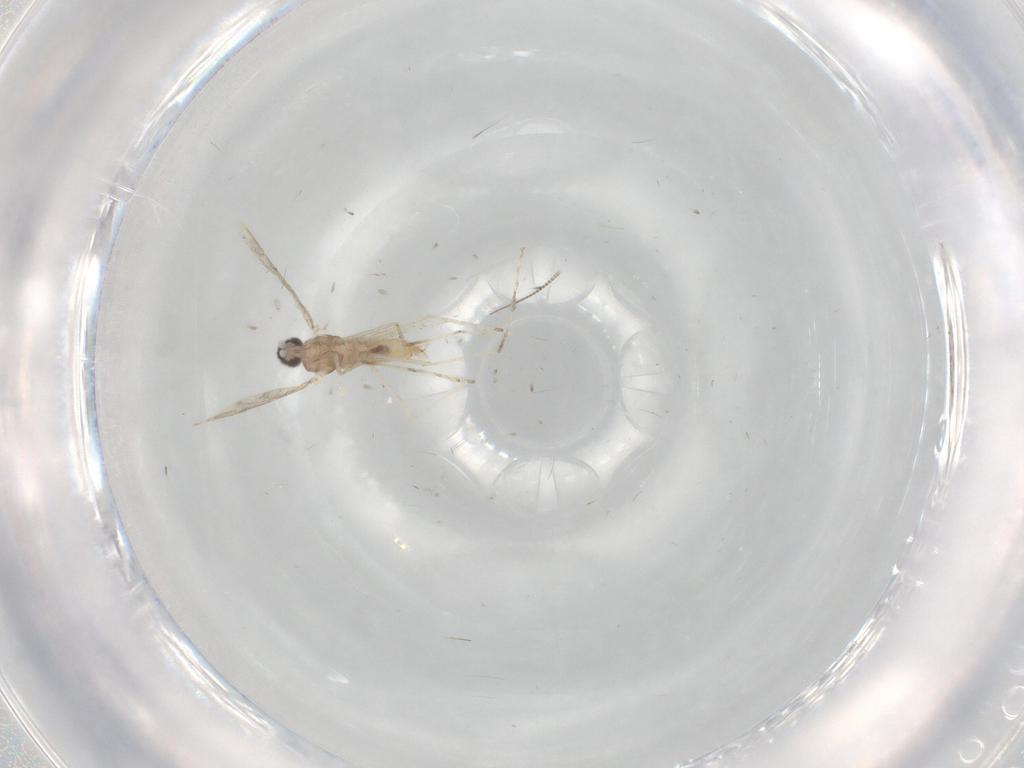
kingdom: Animalia
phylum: Arthropoda
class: Insecta
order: Diptera
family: Cecidomyiidae
